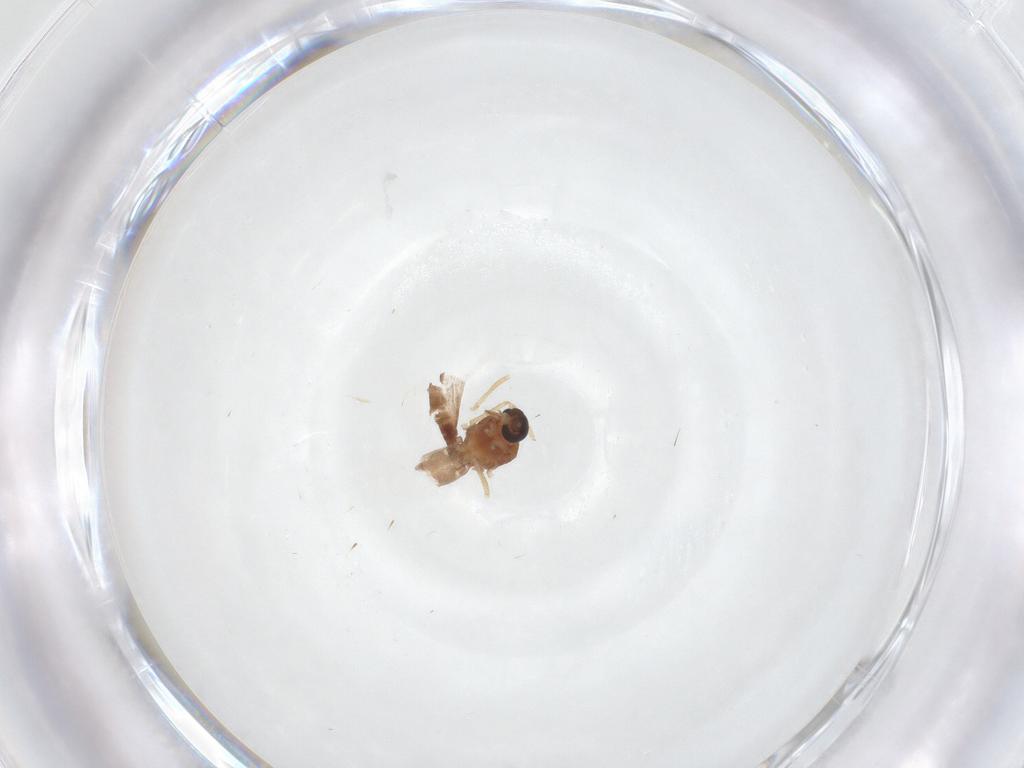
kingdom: Animalia
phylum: Arthropoda
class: Insecta
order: Diptera
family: Ceratopogonidae
